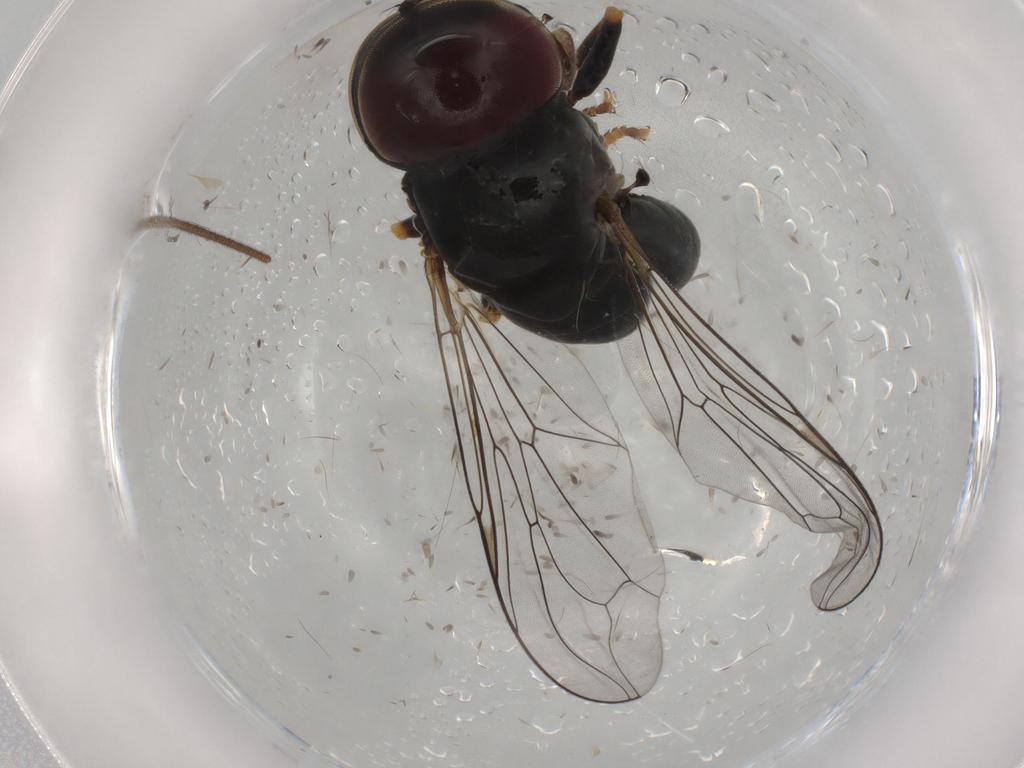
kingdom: Animalia
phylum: Arthropoda
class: Insecta
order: Diptera
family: Pipunculidae
